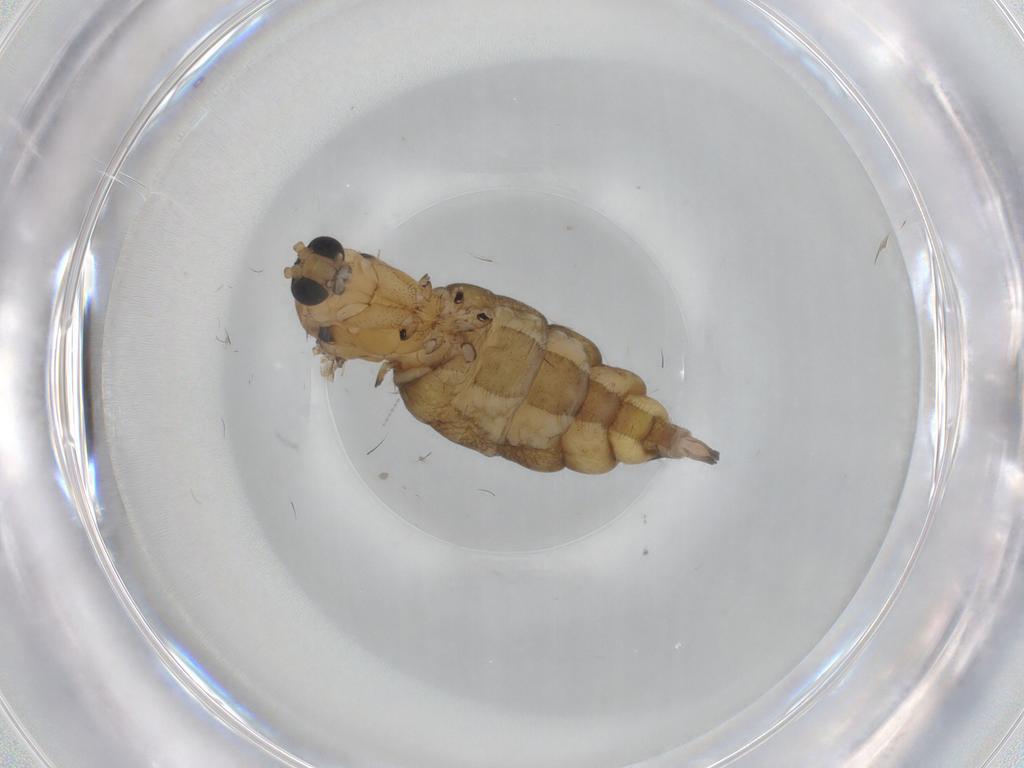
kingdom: Animalia
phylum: Arthropoda
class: Insecta
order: Diptera
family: Sciaridae
